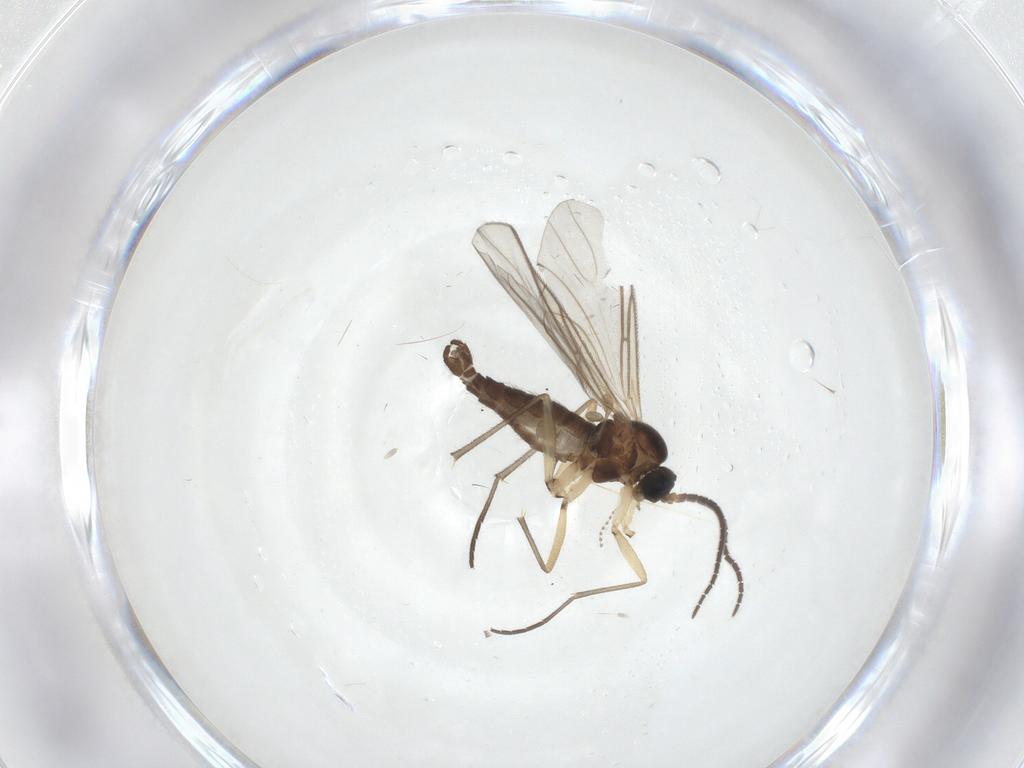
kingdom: Animalia
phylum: Arthropoda
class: Insecta
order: Diptera
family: Phoridae
